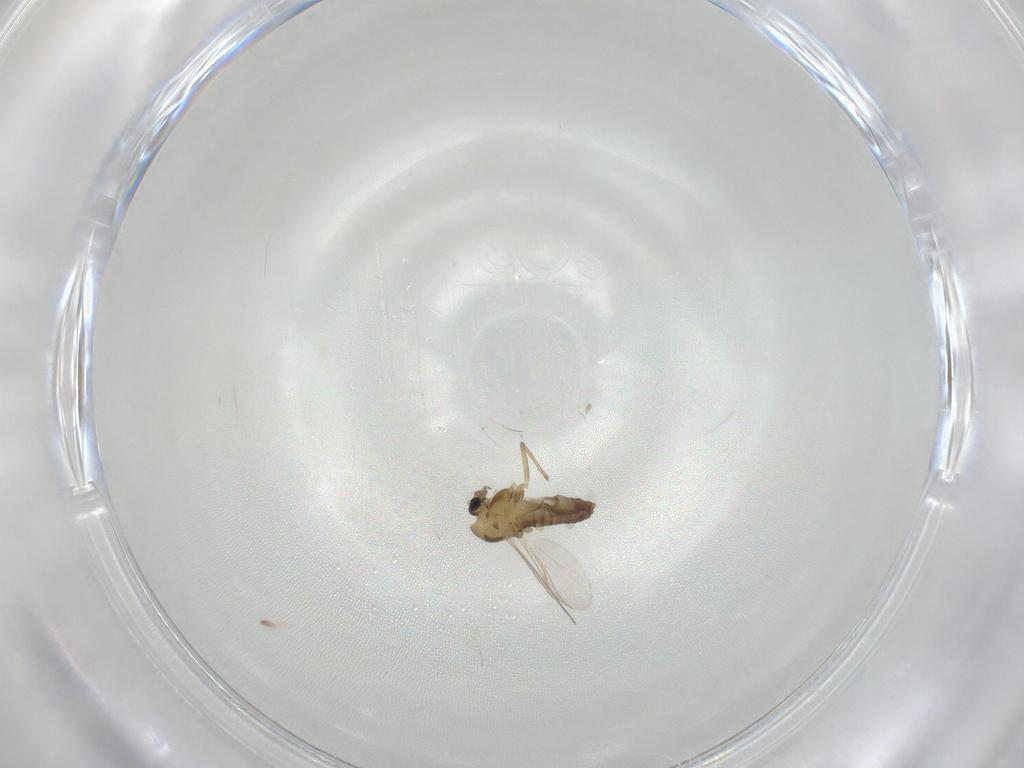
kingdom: Animalia
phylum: Arthropoda
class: Insecta
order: Diptera
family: Chironomidae
